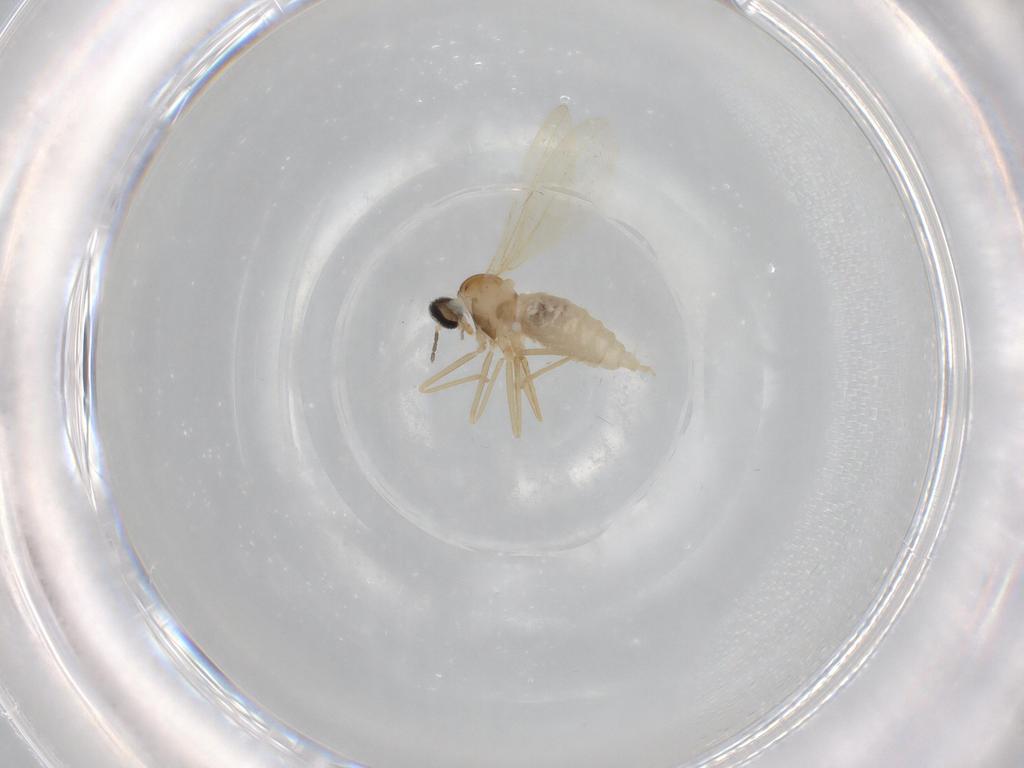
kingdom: Animalia
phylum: Arthropoda
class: Insecta
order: Diptera
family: Cecidomyiidae
